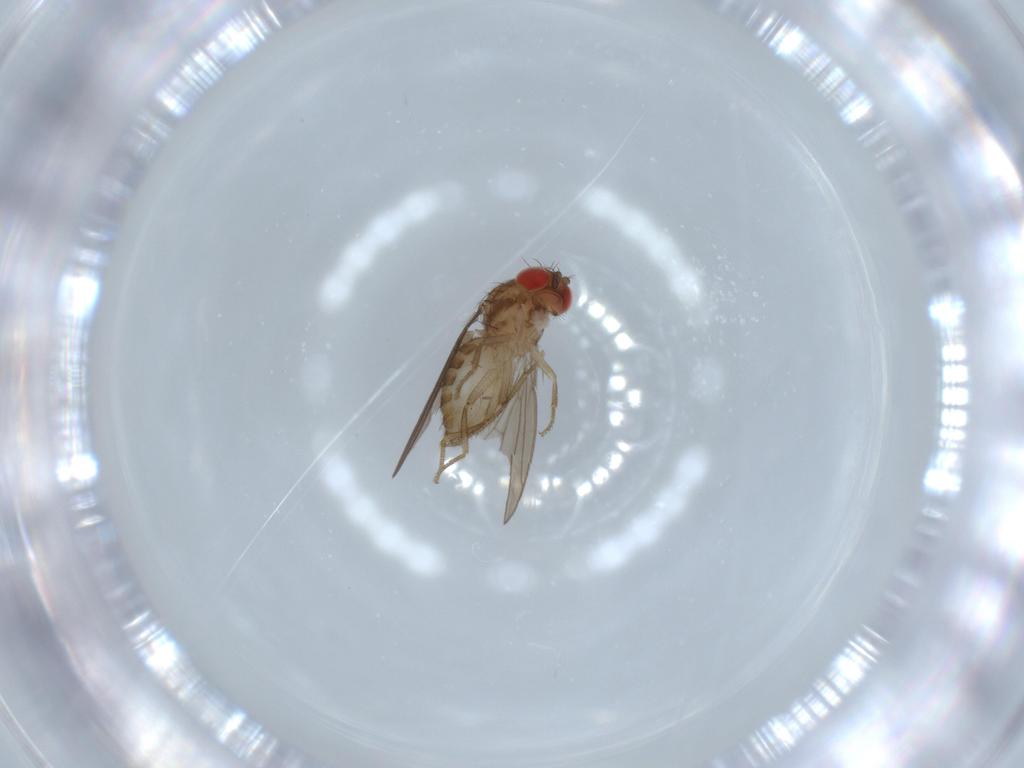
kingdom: Animalia
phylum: Arthropoda
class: Insecta
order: Diptera
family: Drosophilidae
